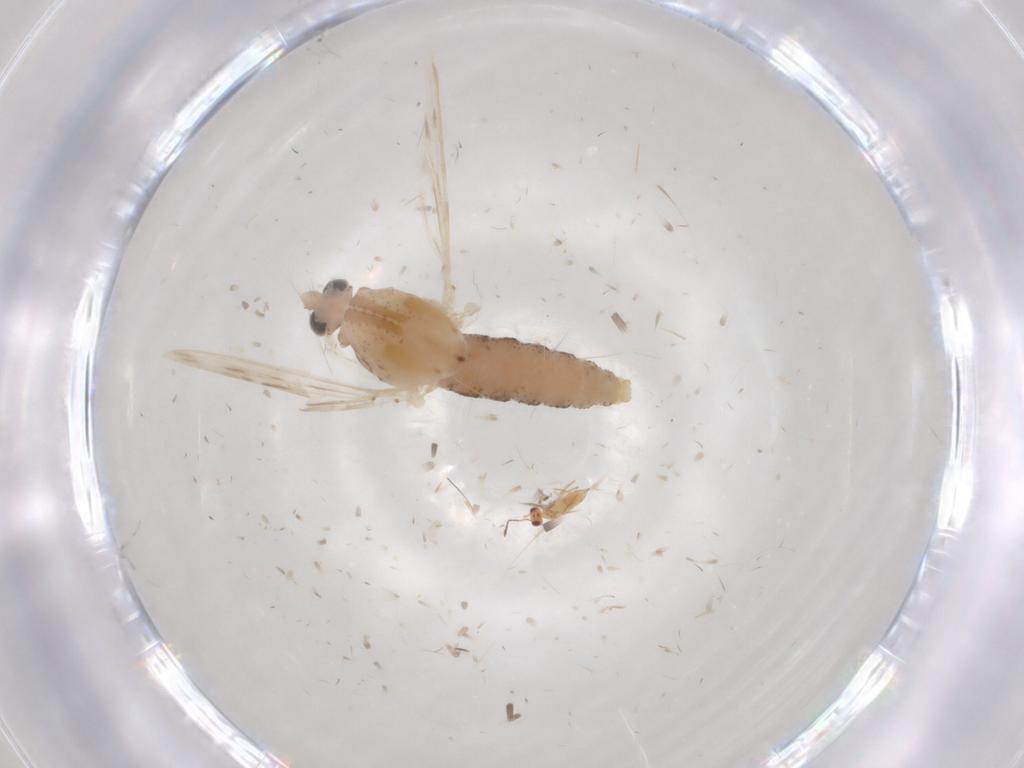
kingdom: Animalia
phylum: Arthropoda
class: Insecta
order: Diptera
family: Chaoboridae
